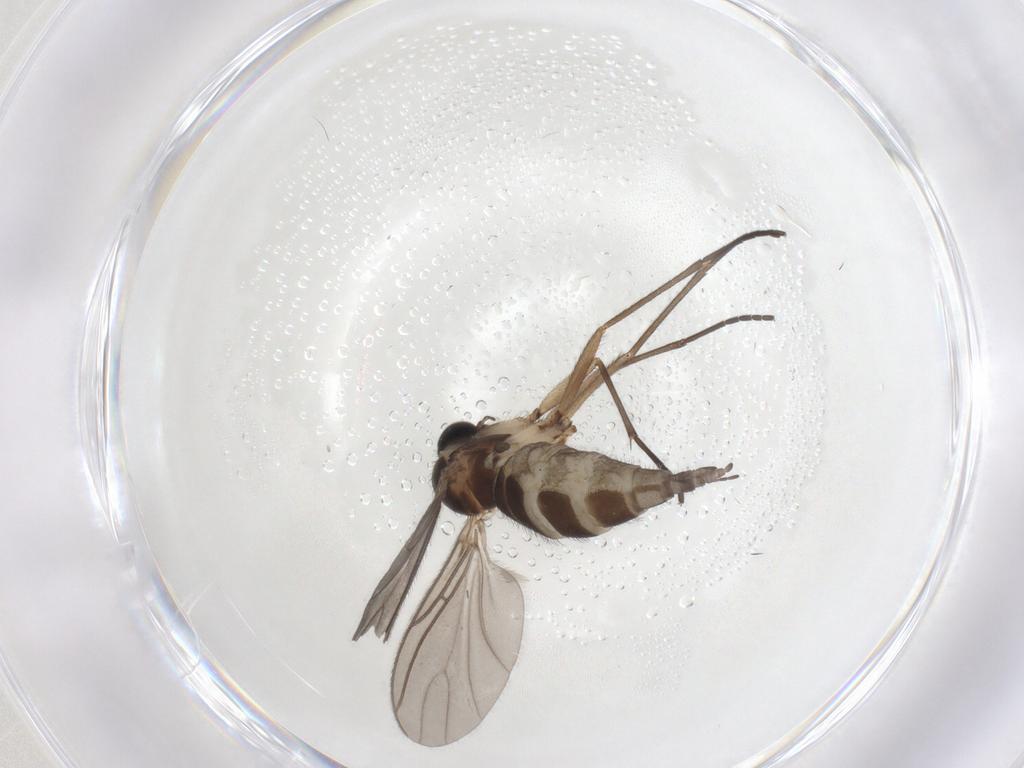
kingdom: Animalia
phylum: Arthropoda
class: Insecta
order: Diptera
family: Sciaridae
